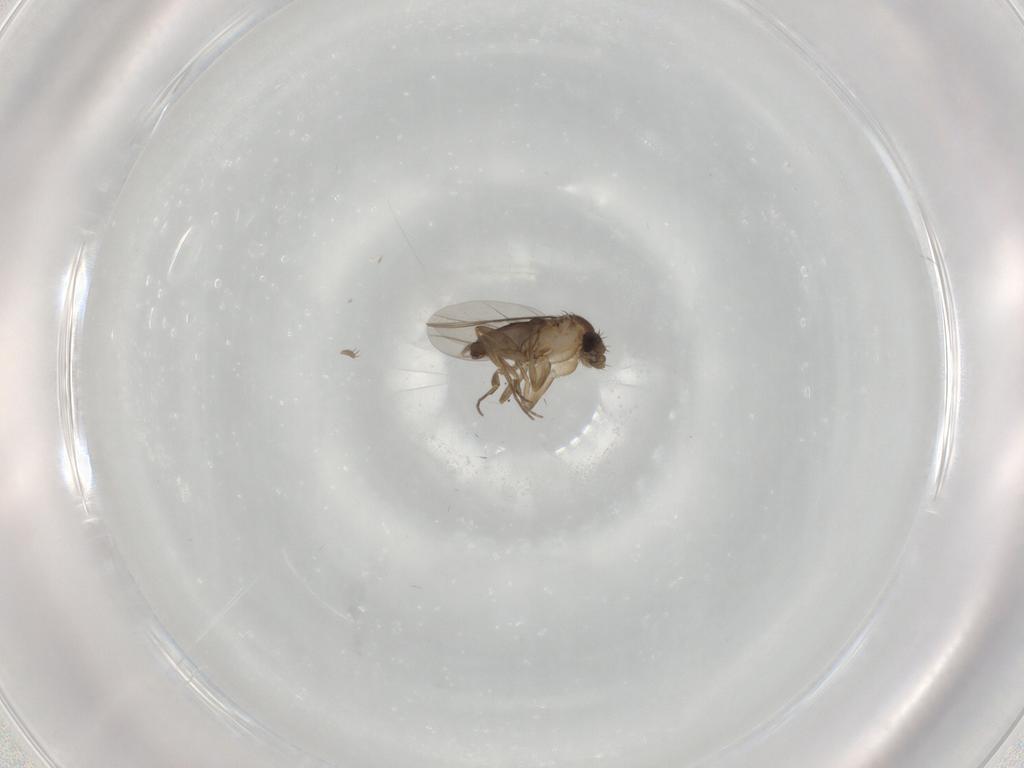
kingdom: Animalia
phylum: Arthropoda
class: Insecta
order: Diptera
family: Phoridae
